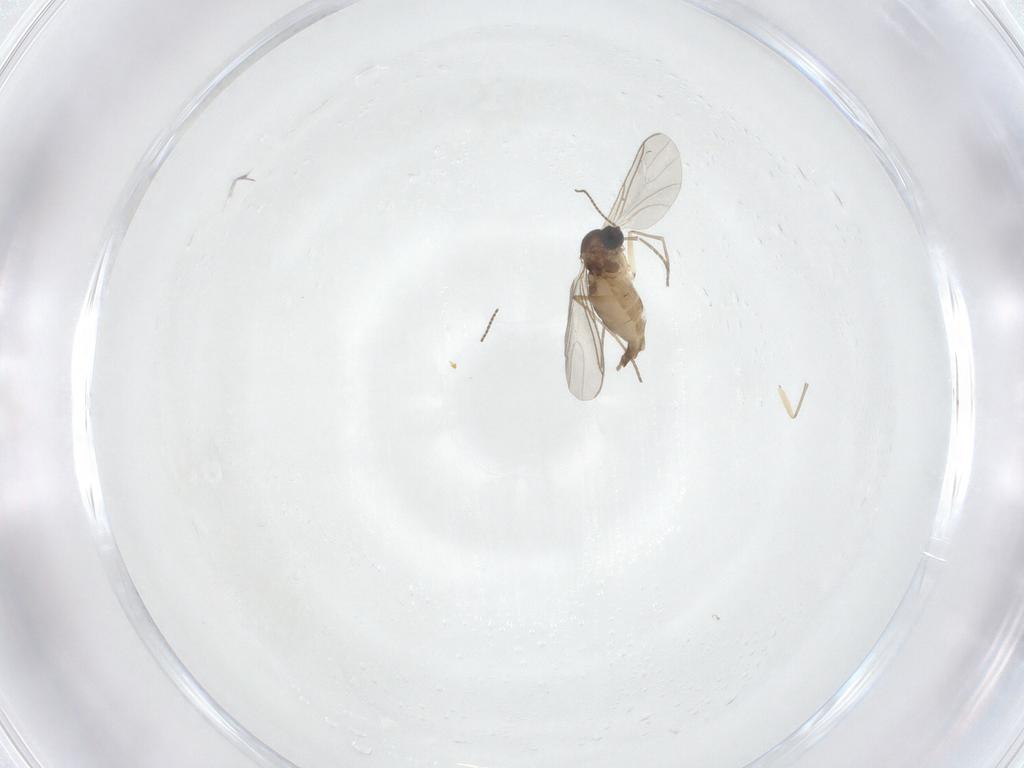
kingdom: Animalia
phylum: Arthropoda
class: Insecta
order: Diptera
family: Sciaridae
